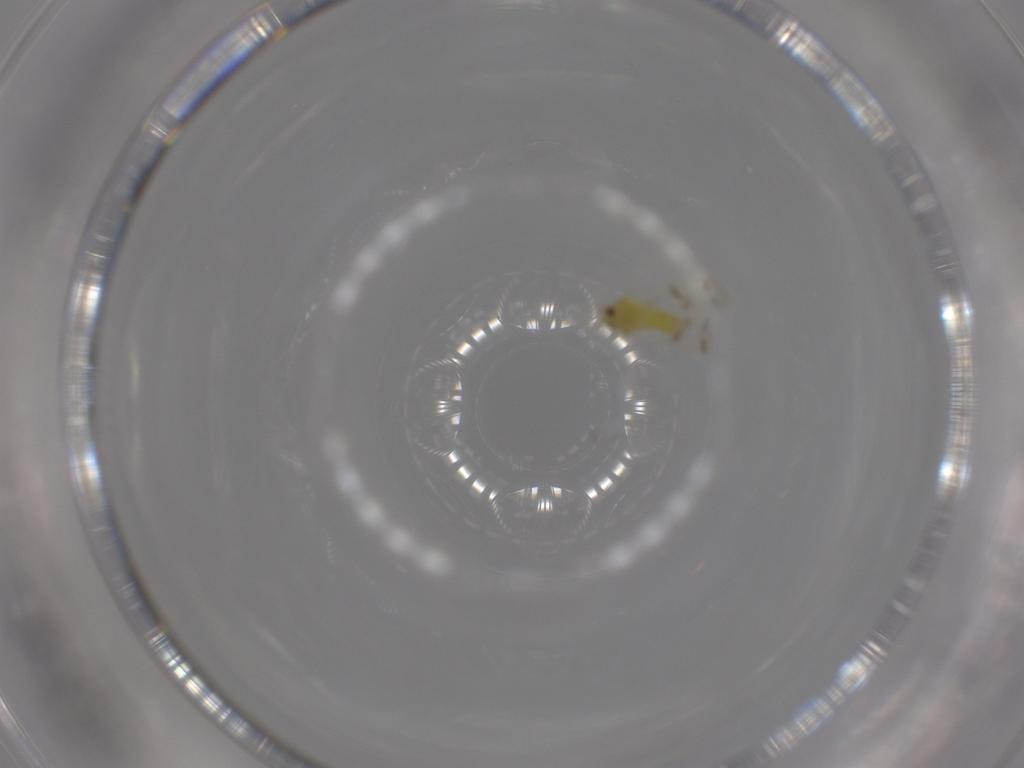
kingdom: Animalia
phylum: Arthropoda
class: Insecta
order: Hemiptera
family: Aleyrodidae
